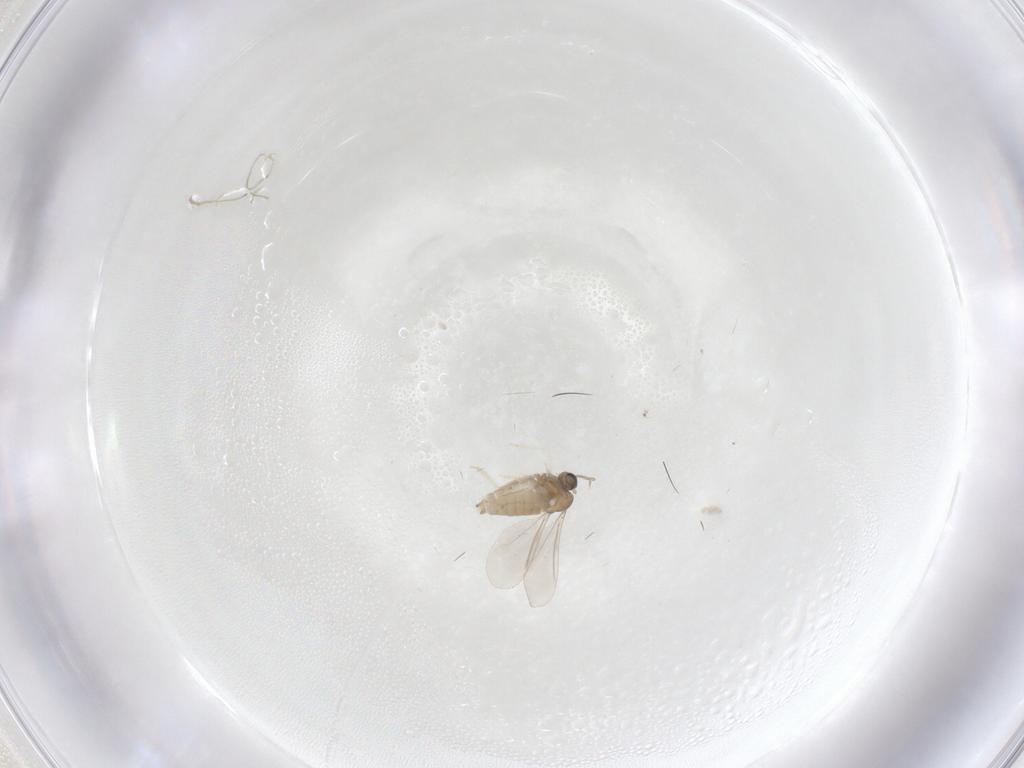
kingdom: Animalia
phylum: Arthropoda
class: Insecta
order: Diptera
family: Cecidomyiidae
